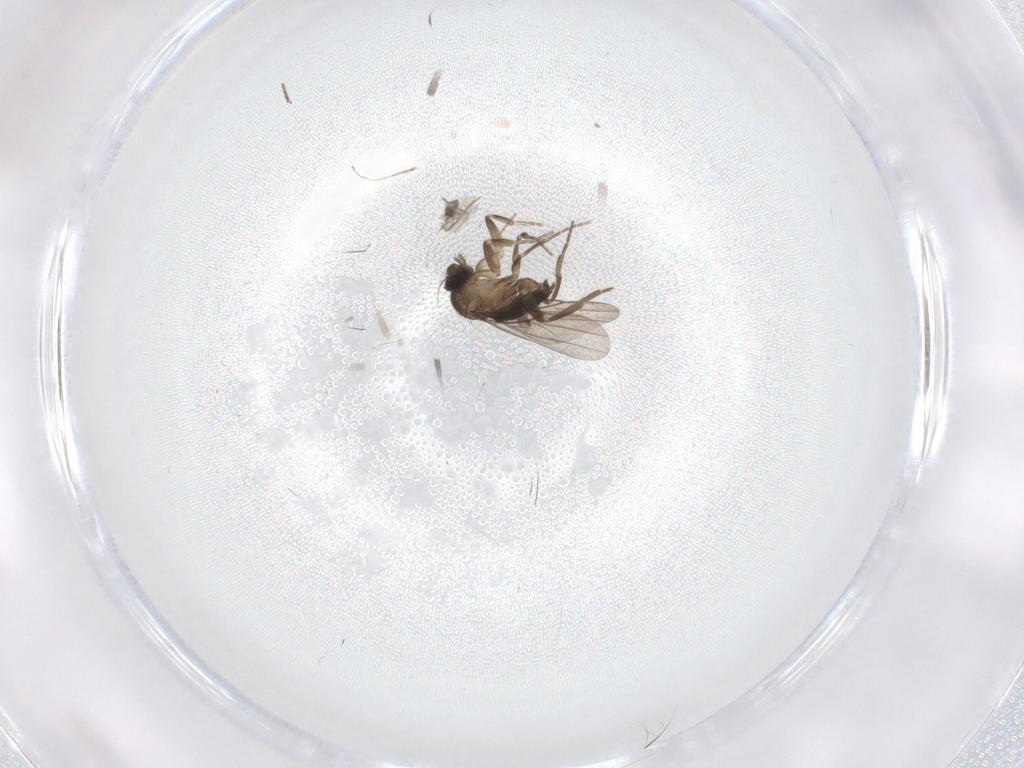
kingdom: Animalia
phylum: Arthropoda
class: Insecta
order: Diptera
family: Phoridae
